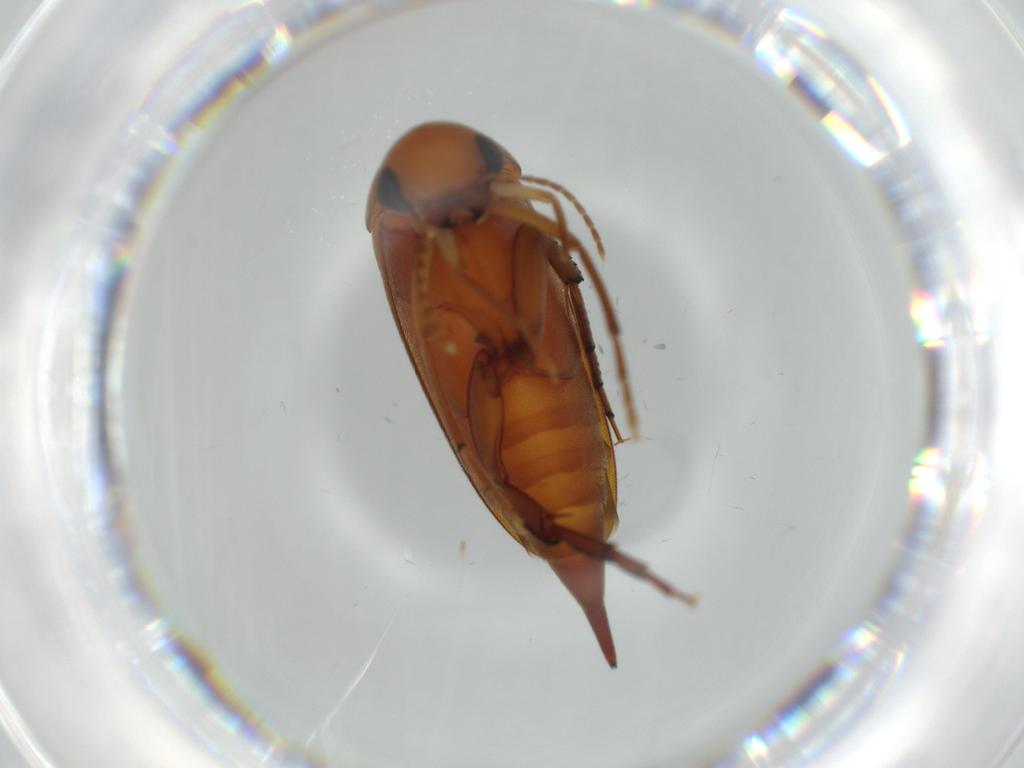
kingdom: Animalia
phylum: Arthropoda
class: Insecta
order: Coleoptera
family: Mordellidae
